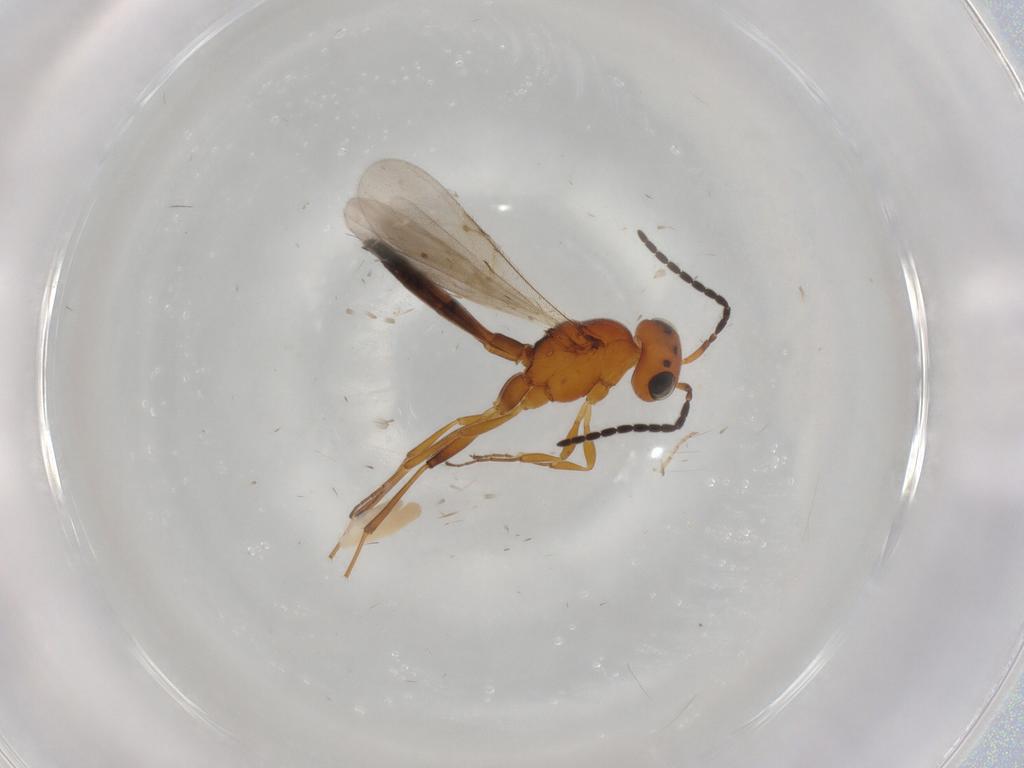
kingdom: Animalia
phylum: Arthropoda
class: Insecta
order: Hymenoptera
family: Braconidae
